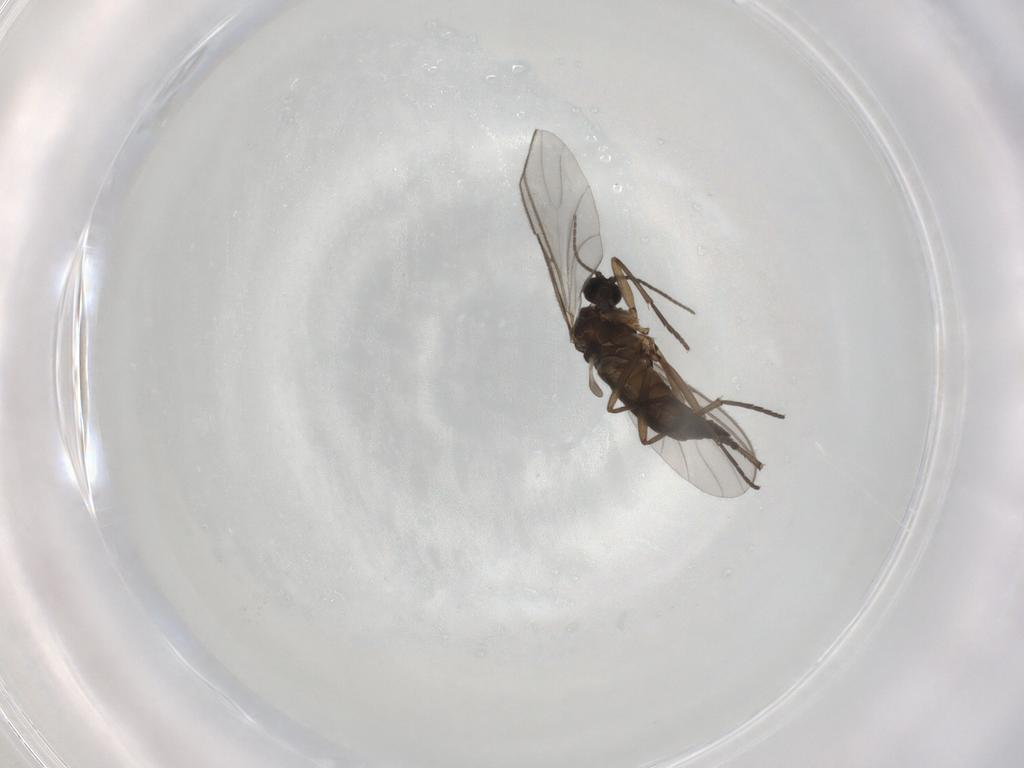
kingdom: Animalia
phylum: Arthropoda
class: Insecta
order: Diptera
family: Sciaridae
